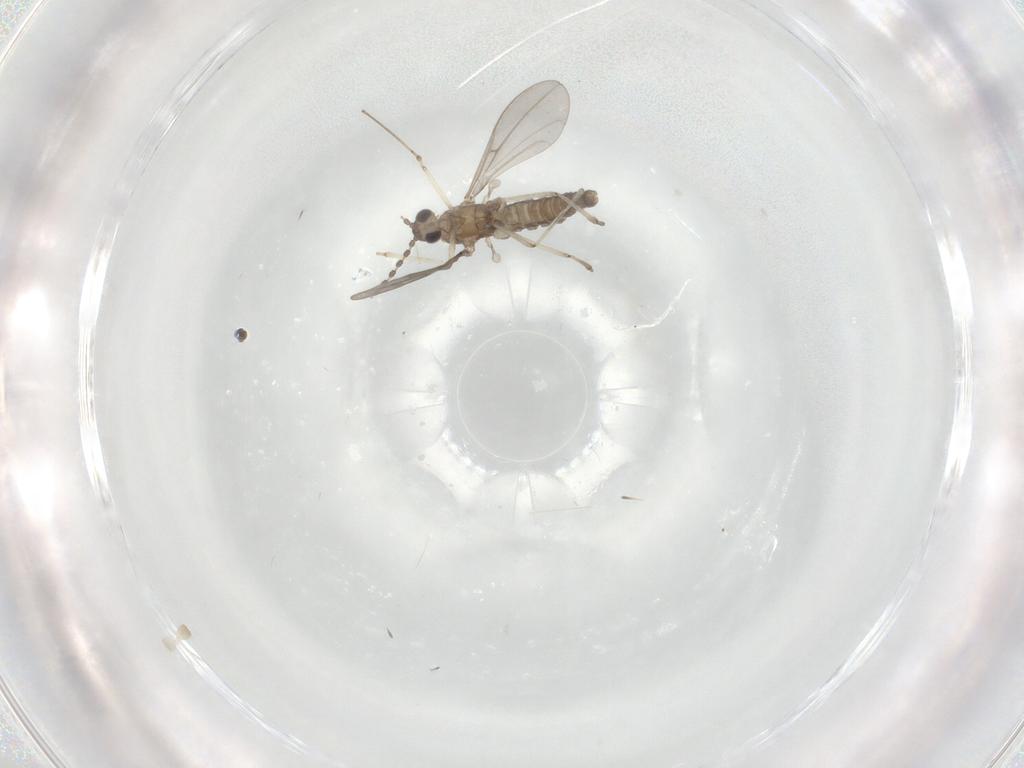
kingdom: Animalia
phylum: Arthropoda
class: Insecta
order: Diptera
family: Cecidomyiidae
